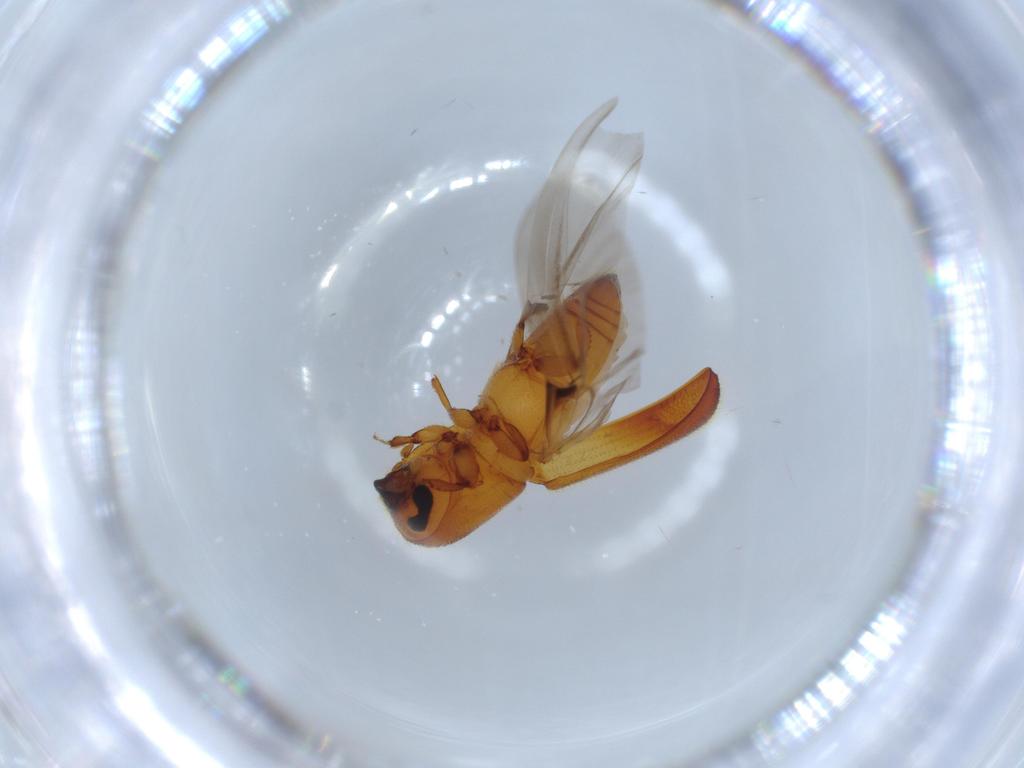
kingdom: Animalia
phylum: Arthropoda
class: Insecta
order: Coleoptera
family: Curculionidae
